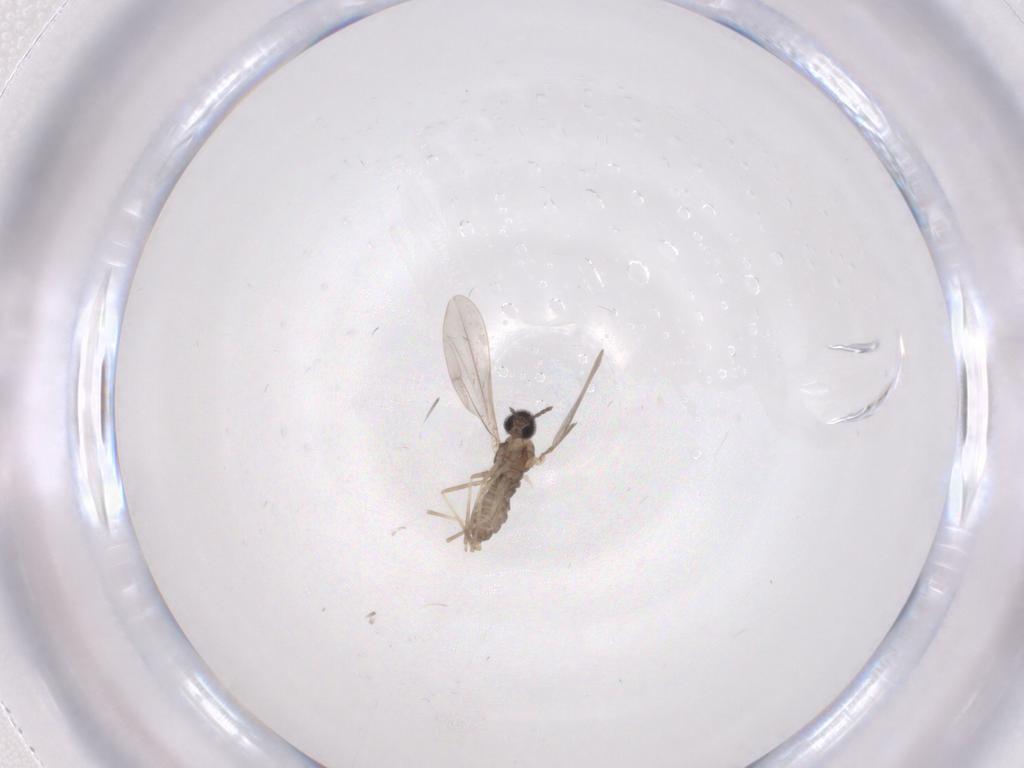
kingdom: Animalia
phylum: Arthropoda
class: Insecta
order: Diptera
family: Cecidomyiidae
